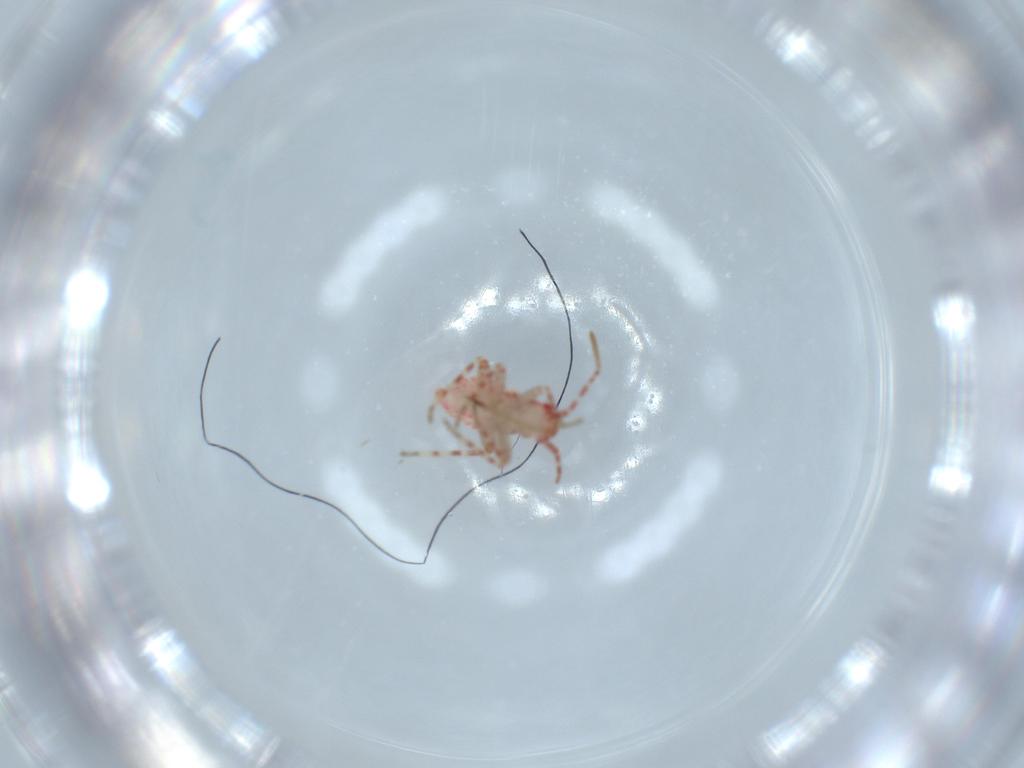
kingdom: Animalia
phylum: Arthropoda
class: Insecta
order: Hemiptera
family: Miridae
